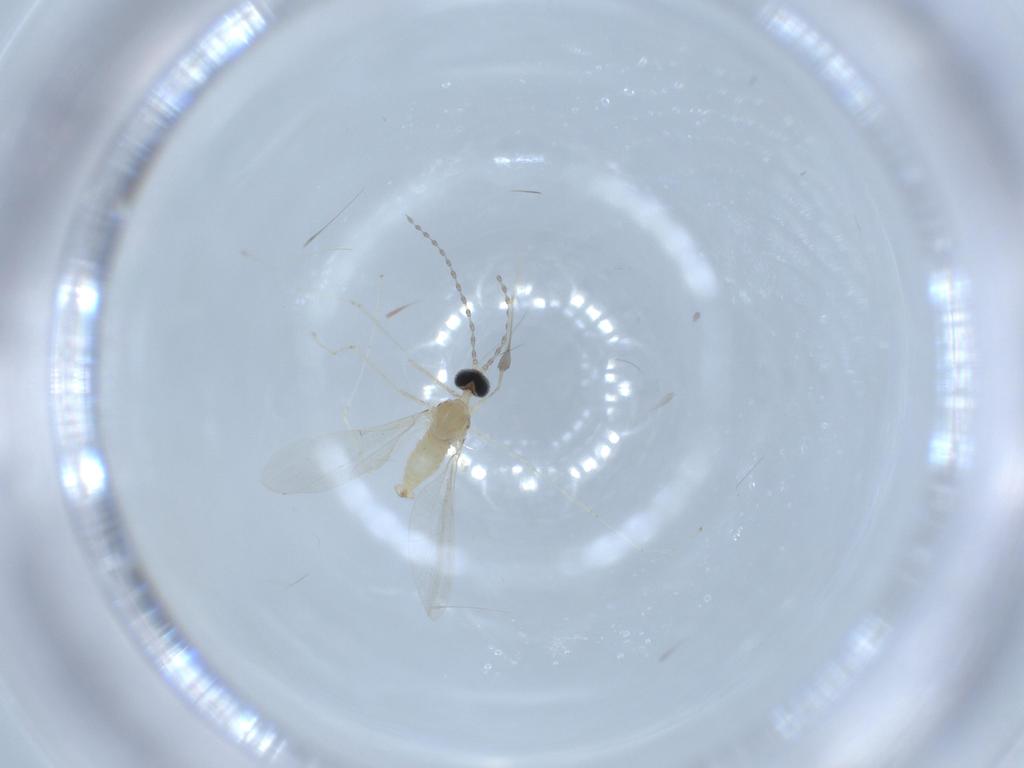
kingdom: Animalia
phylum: Arthropoda
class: Insecta
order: Diptera
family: Cecidomyiidae
